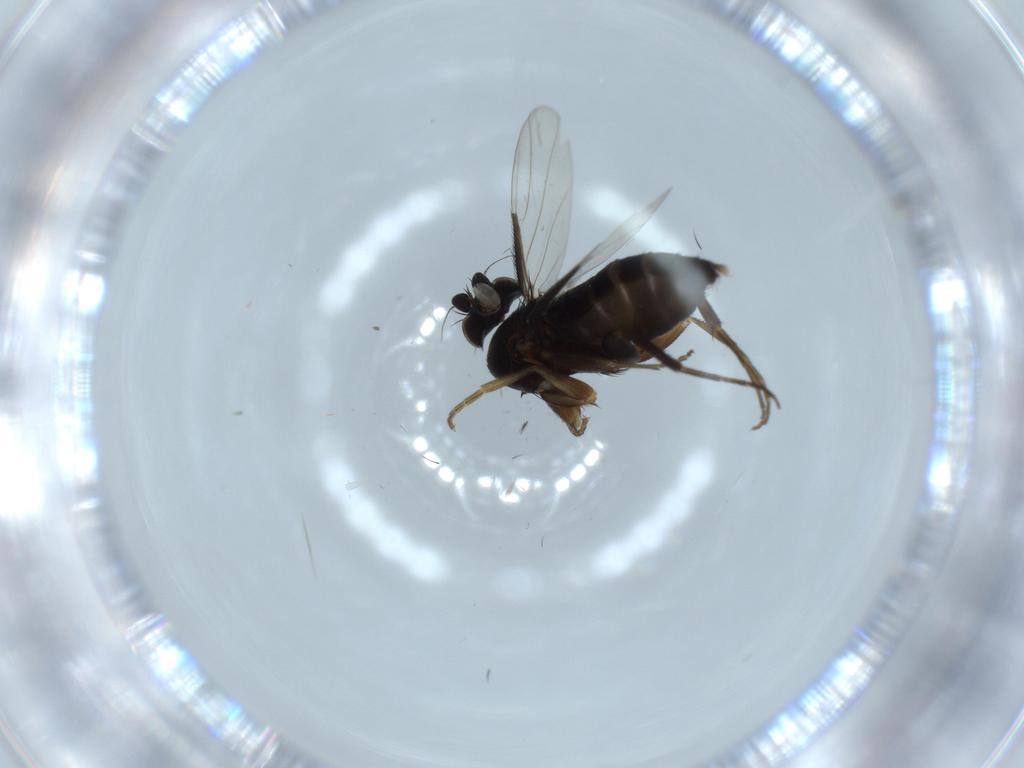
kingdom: Animalia
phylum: Arthropoda
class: Insecta
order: Diptera
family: Phoridae
